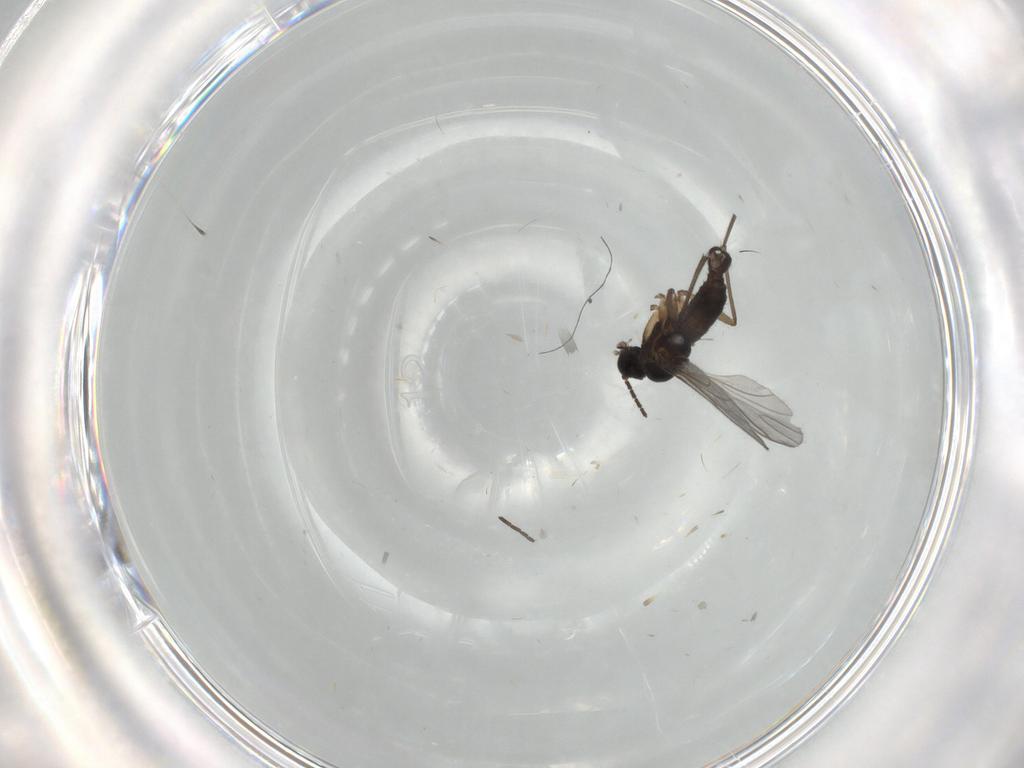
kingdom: Animalia
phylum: Arthropoda
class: Insecta
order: Diptera
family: Sciaridae
